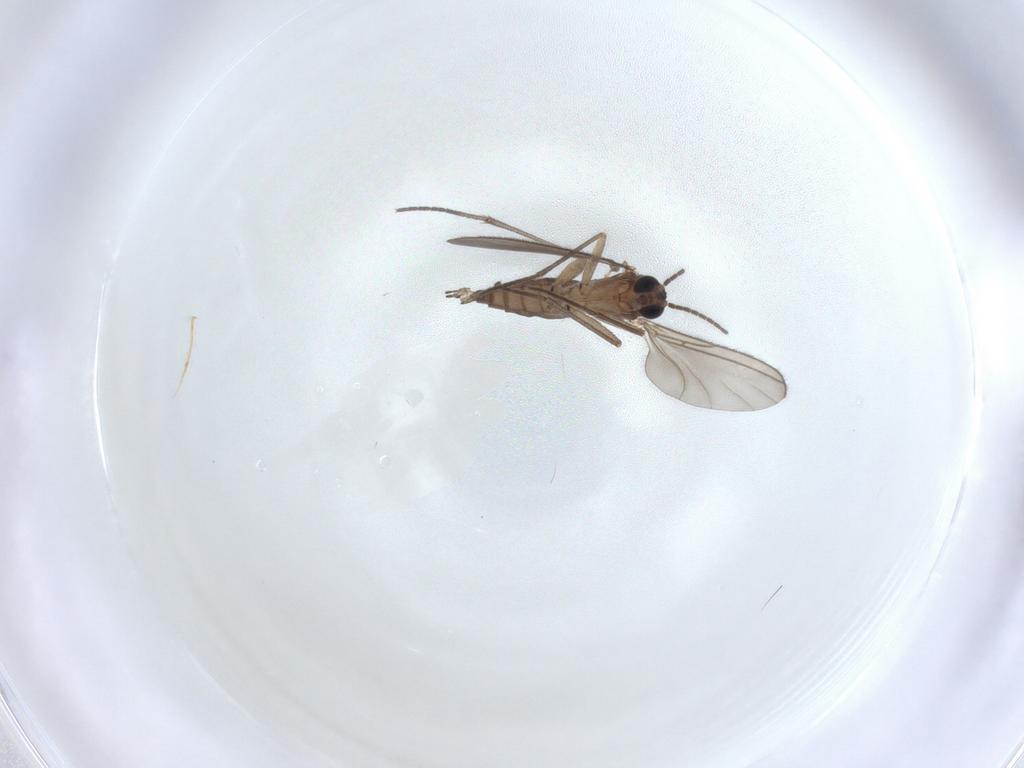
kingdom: Animalia
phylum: Arthropoda
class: Insecta
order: Diptera
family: Sciaridae
